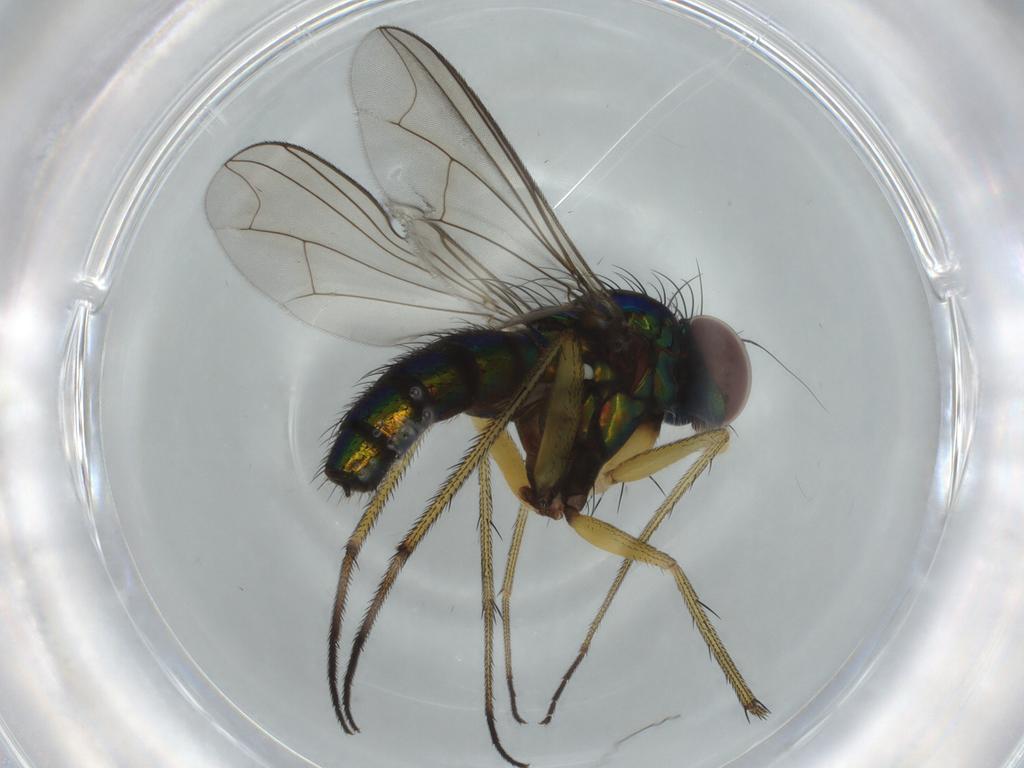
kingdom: Animalia
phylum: Arthropoda
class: Insecta
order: Diptera
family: Dolichopodidae
